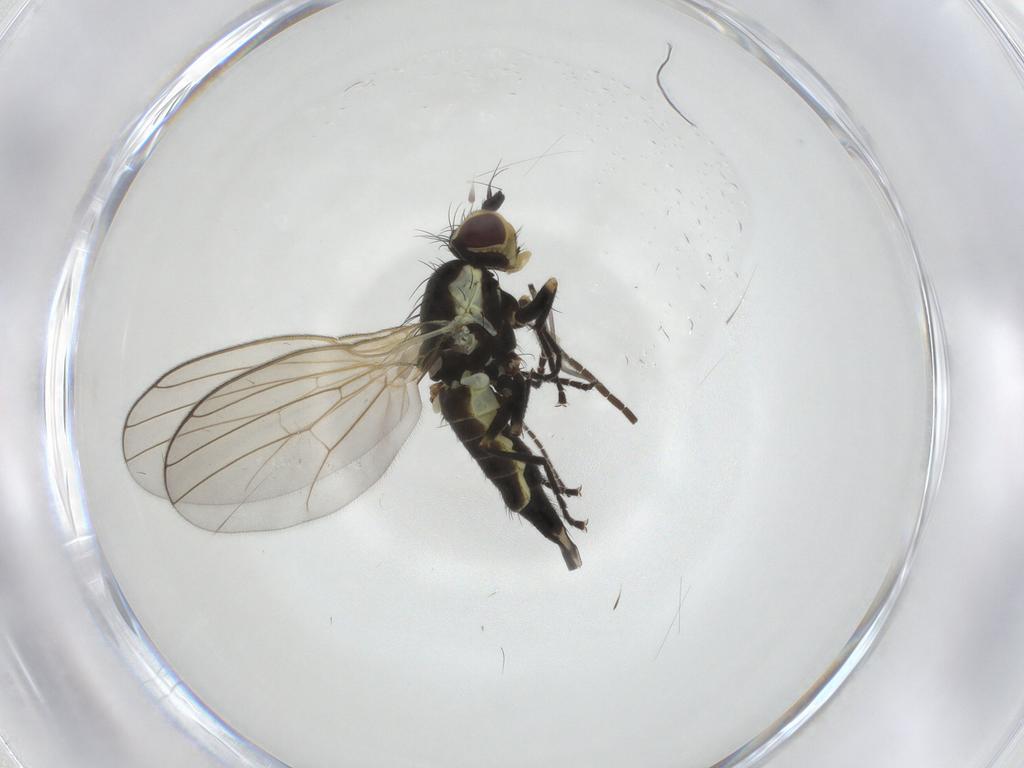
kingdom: Animalia
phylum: Arthropoda
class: Insecta
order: Diptera
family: Agromyzidae
